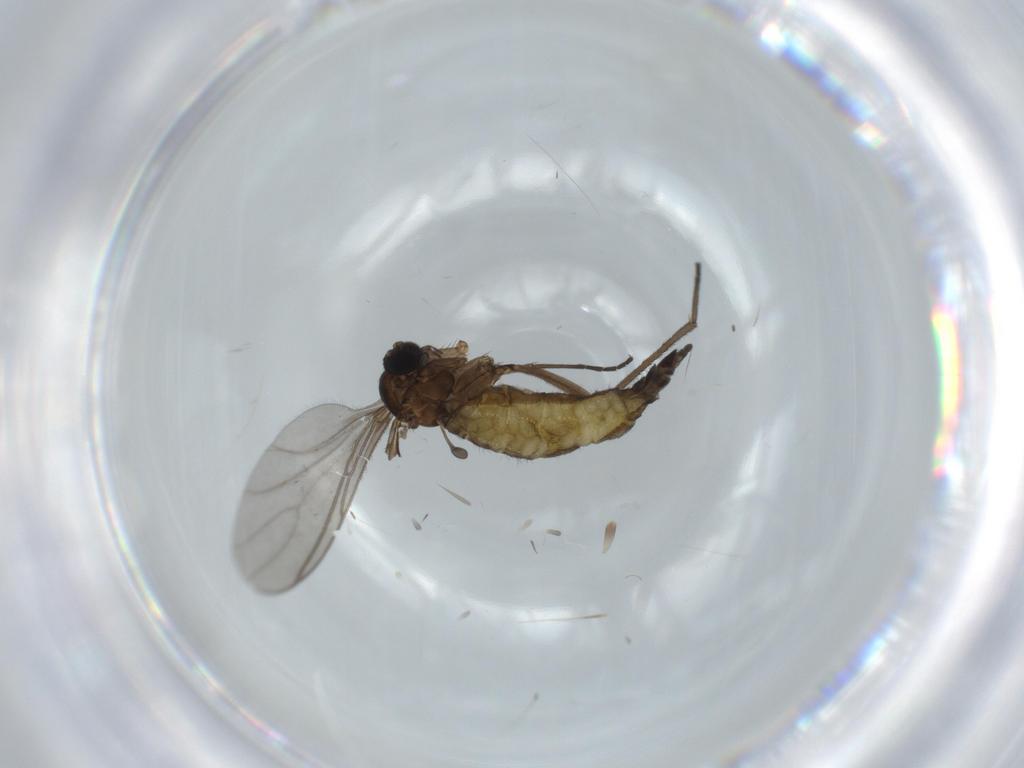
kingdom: Animalia
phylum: Arthropoda
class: Insecta
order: Diptera
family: Sciaridae
